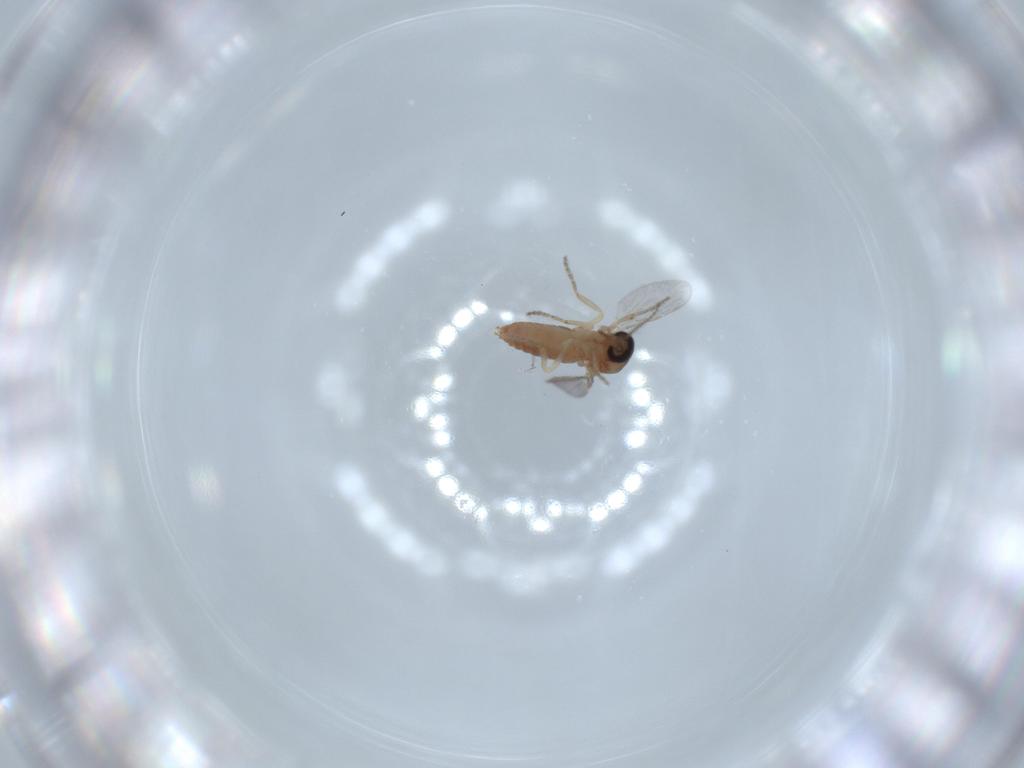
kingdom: Animalia
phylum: Arthropoda
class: Insecta
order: Diptera
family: Ceratopogonidae
